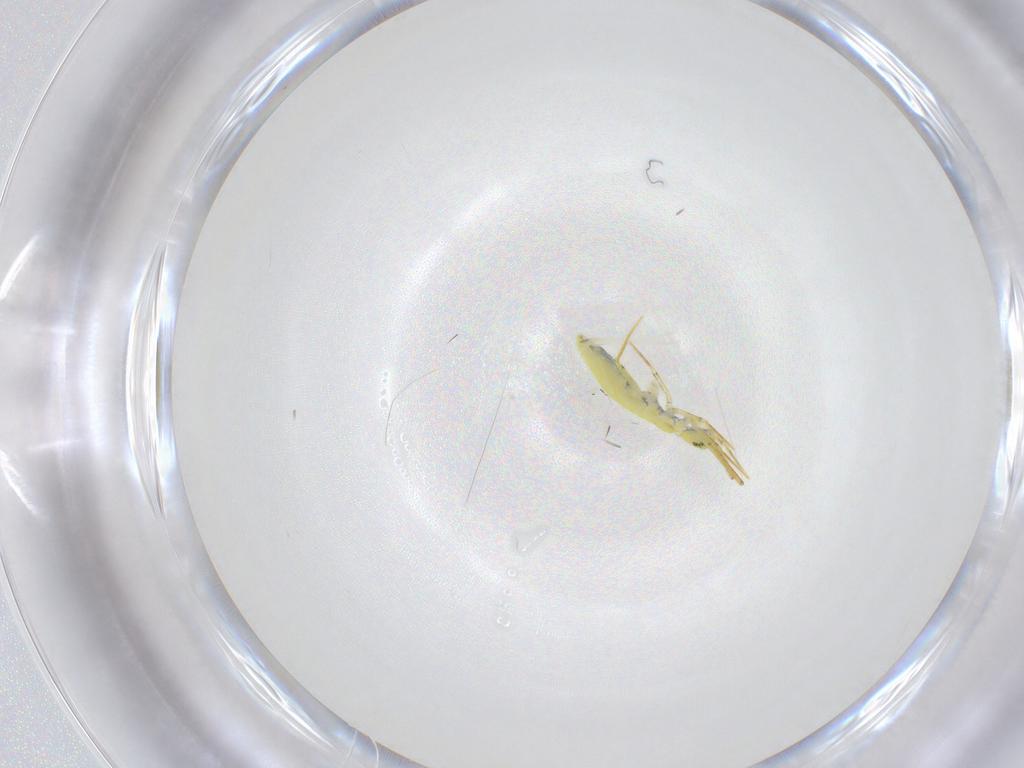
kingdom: Animalia
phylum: Arthropoda
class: Collembola
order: Entomobryomorpha
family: Entomobryidae
